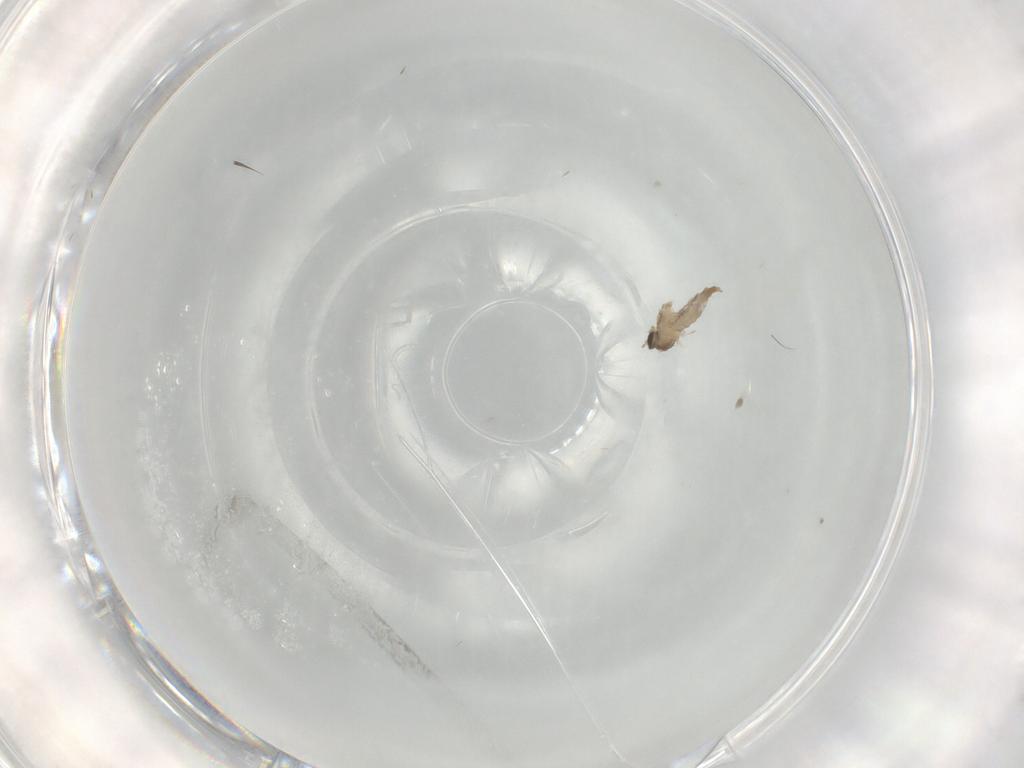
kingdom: Animalia
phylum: Arthropoda
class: Insecta
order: Diptera
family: Cecidomyiidae
